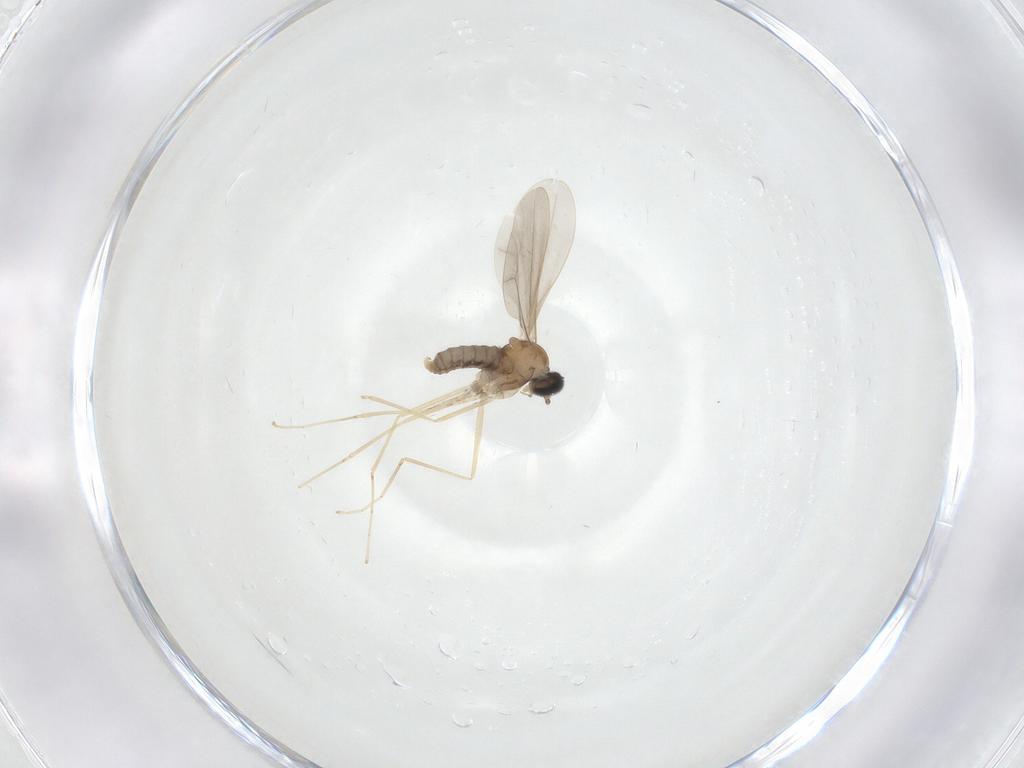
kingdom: Animalia
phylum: Arthropoda
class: Insecta
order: Diptera
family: Cecidomyiidae
